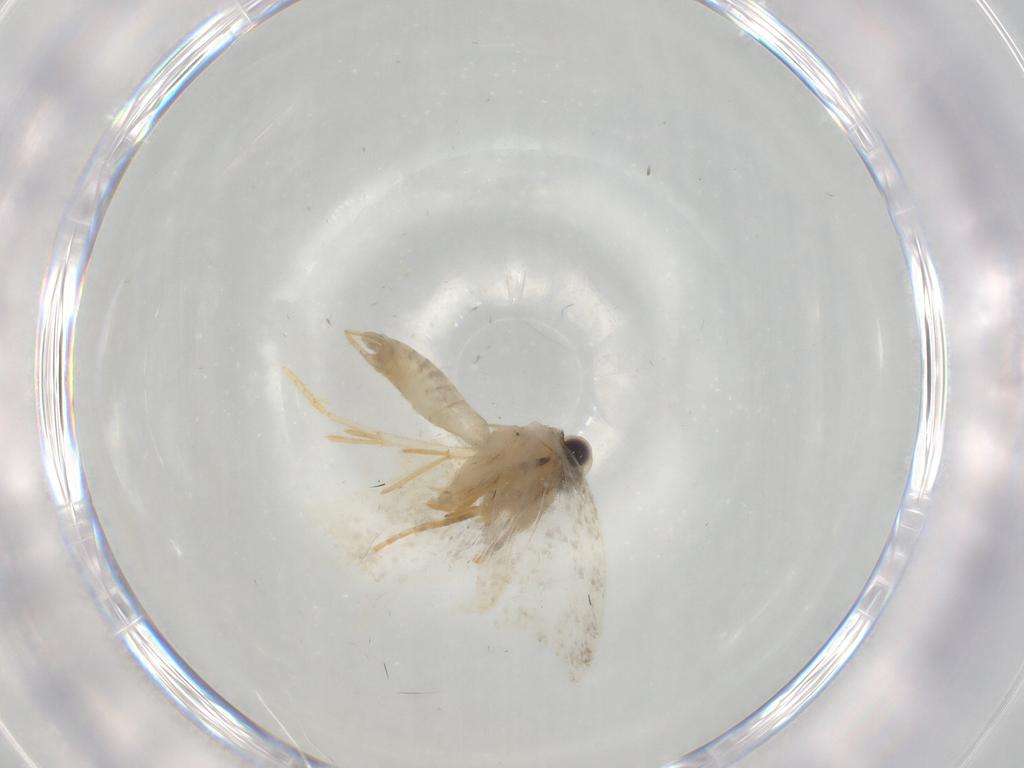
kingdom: Animalia
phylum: Arthropoda
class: Insecta
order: Lepidoptera
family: Psychidae
